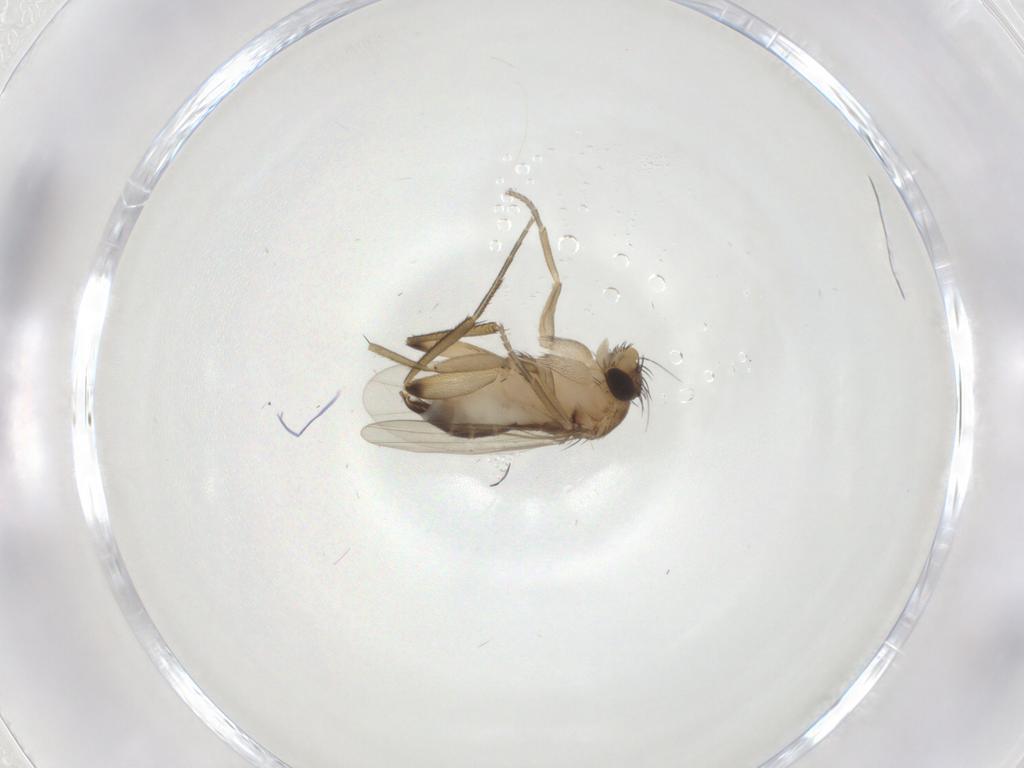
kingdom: Animalia
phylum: Arthropoda
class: Insecta
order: Diptera
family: Phoridae
